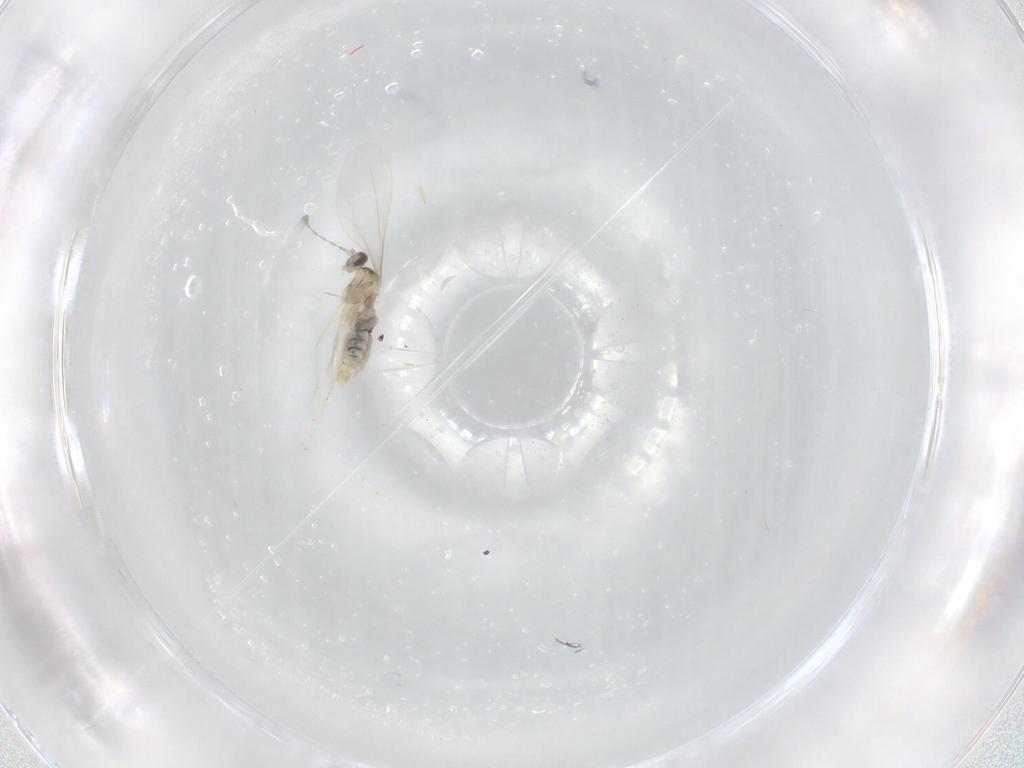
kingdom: Animalia
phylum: Arthropoda
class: Insecta
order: Diptera
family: Cecidomyiidae
